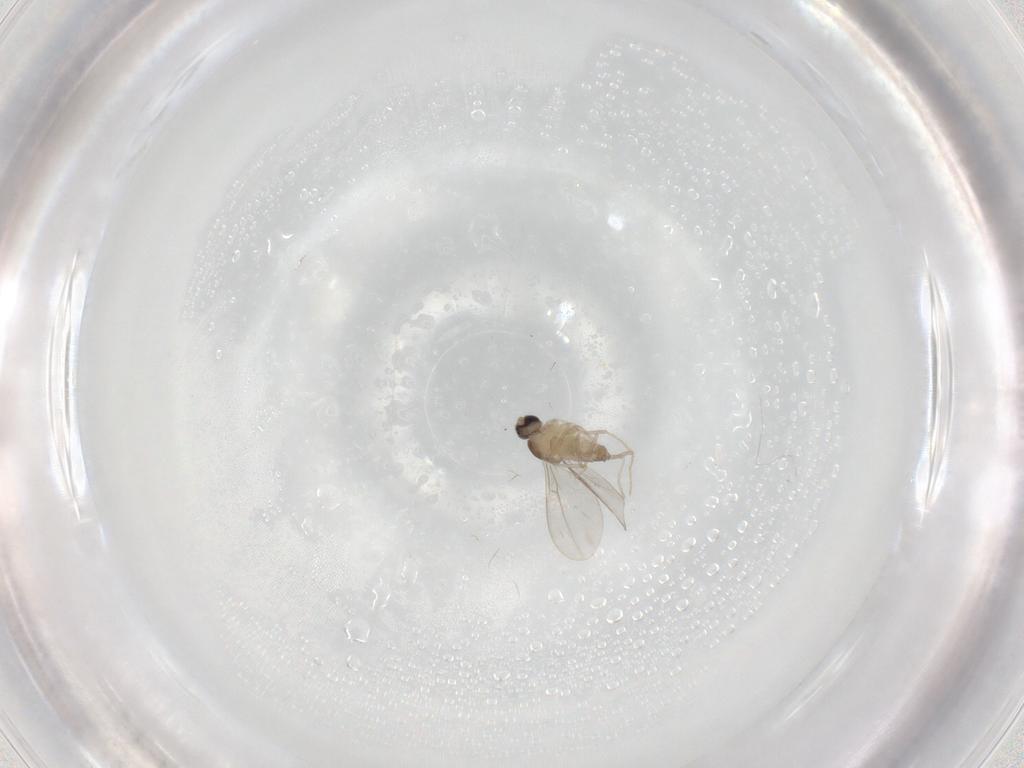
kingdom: Animalia
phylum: Arthropoda
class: Insecta
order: Diptera
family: Cecidomyiidae
